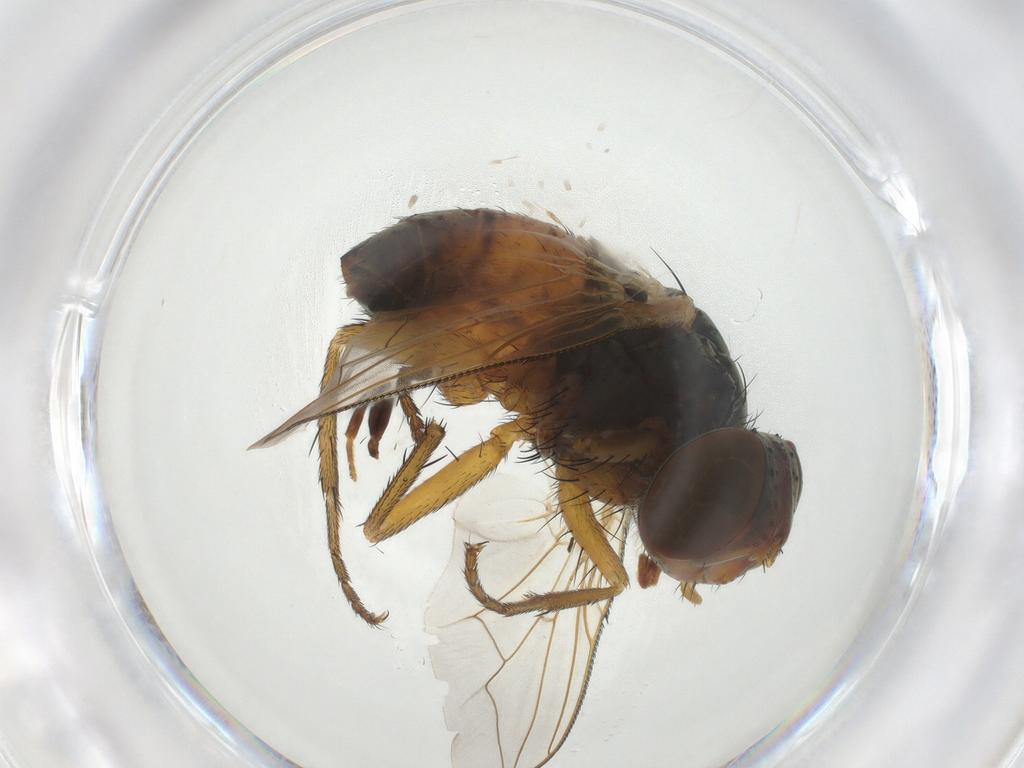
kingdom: Animalia
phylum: Arthropoda
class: Insecta
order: Diptera
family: Sarcophagidae
